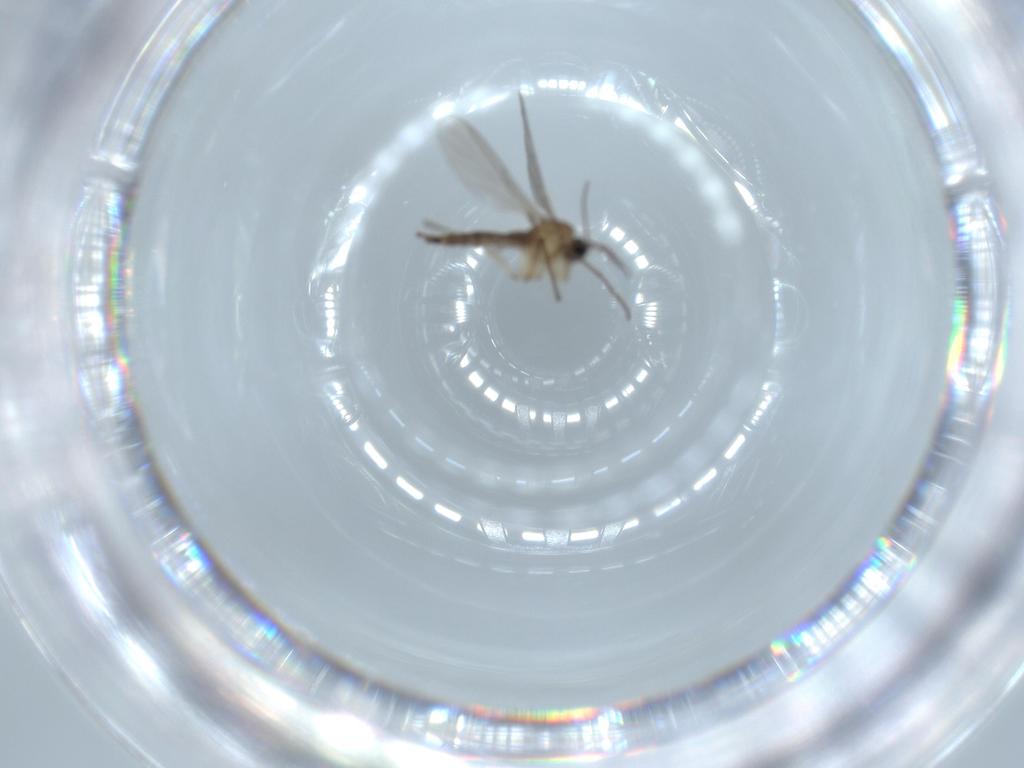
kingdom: Animalia
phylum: Arthropoda
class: Insecta
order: Diptera
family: Sciaridae
